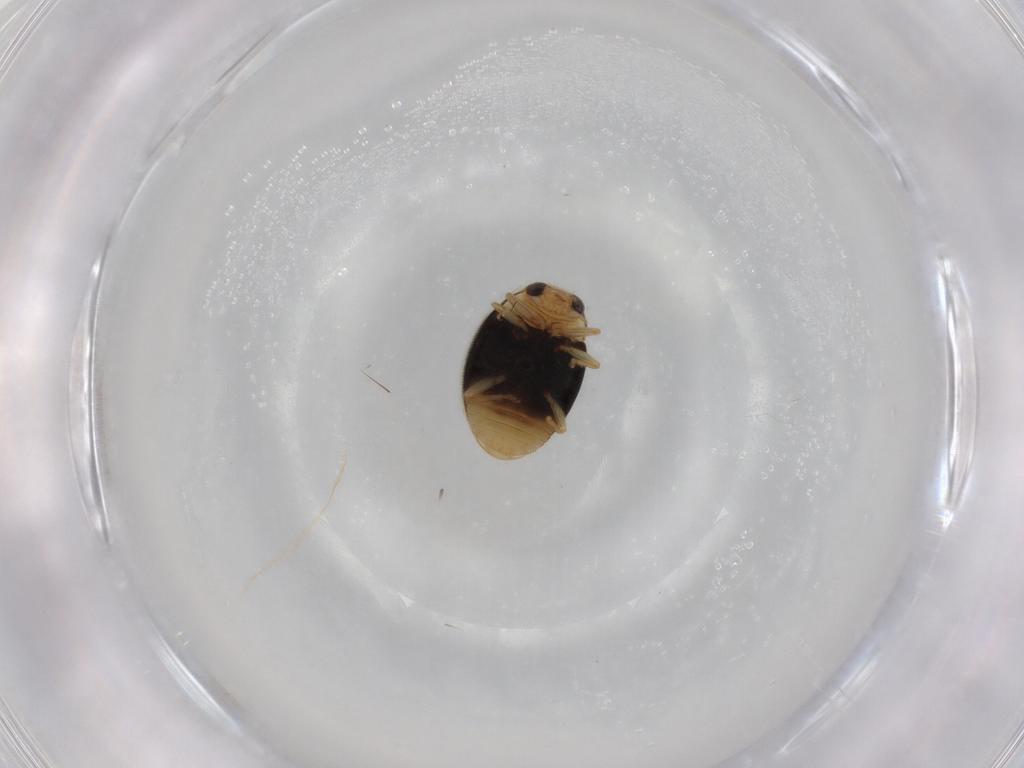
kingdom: Animalia
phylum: Arthropoda
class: Insecta
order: Coleoptera
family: Coccinellidae
